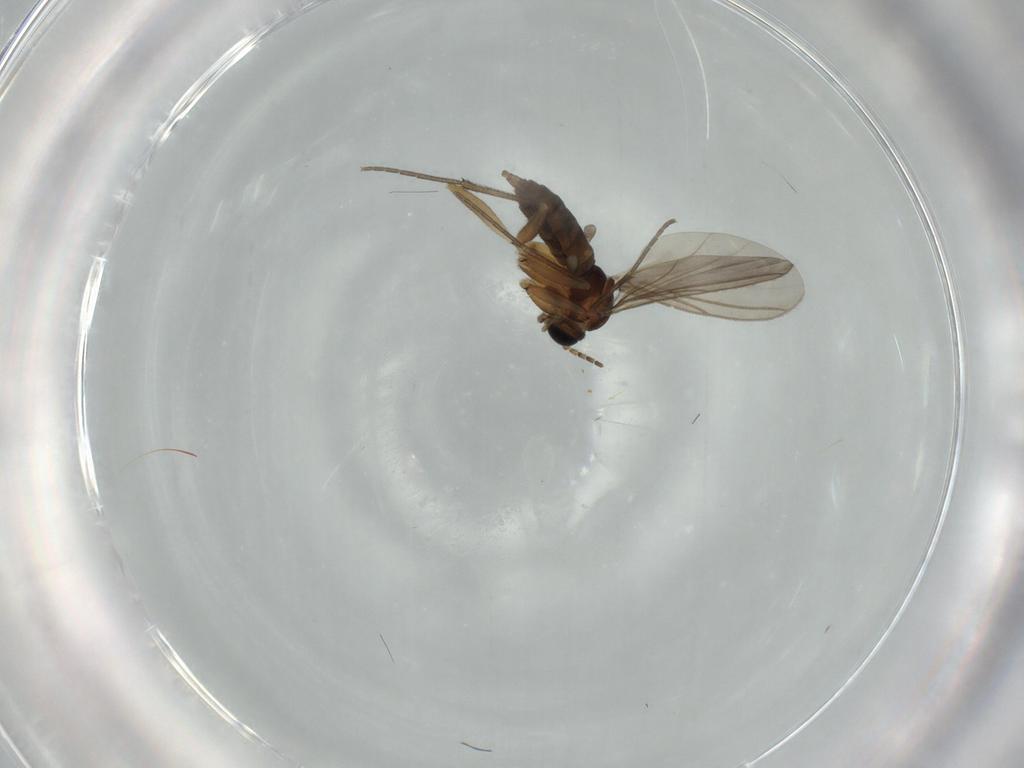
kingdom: Animalia
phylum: Arthropoda
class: Insecta
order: Diptera
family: Sciaridae
